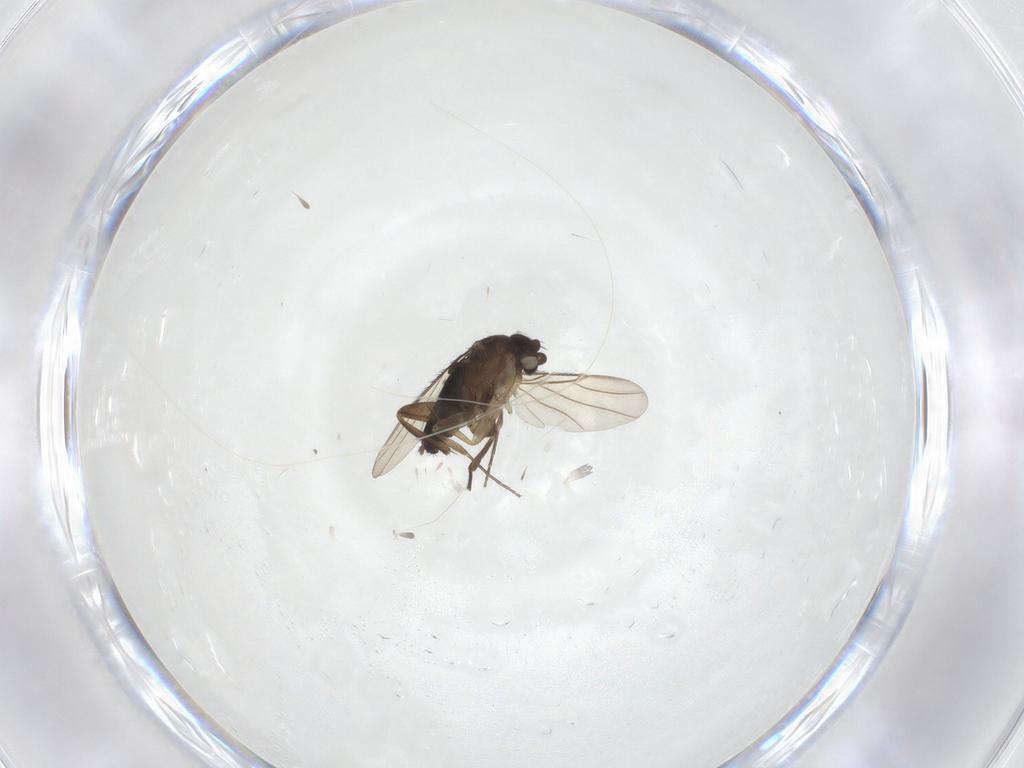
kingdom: Animalia
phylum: Arthropoda
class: Insecta
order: Diptera
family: Phoridae
